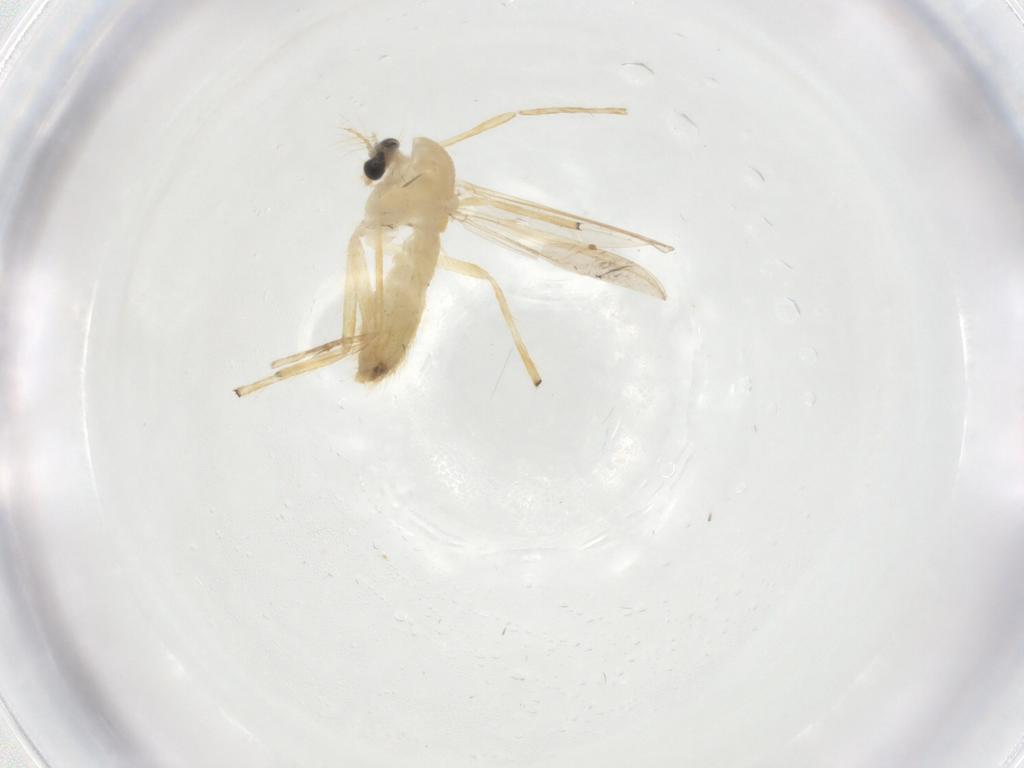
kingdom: Animalia
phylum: Arthropoda
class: Insecta
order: Diptera
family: Chironomidae
